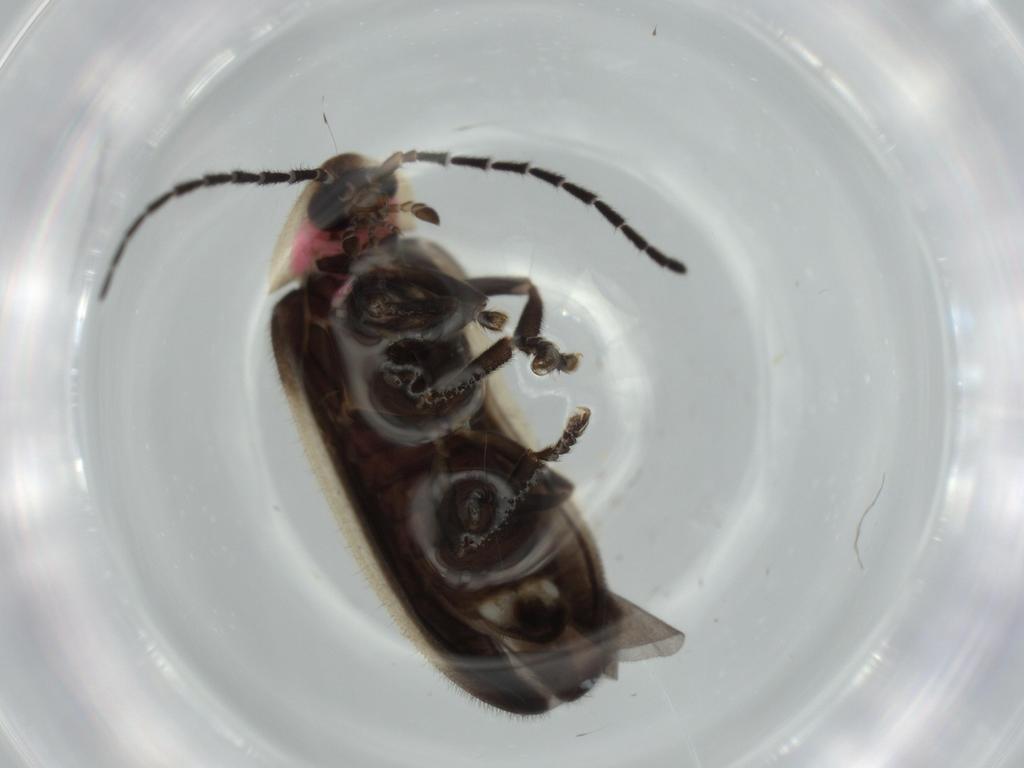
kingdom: Animalia
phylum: Arthropoda
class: Insecta
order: Coleoptera
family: Lampyridae
